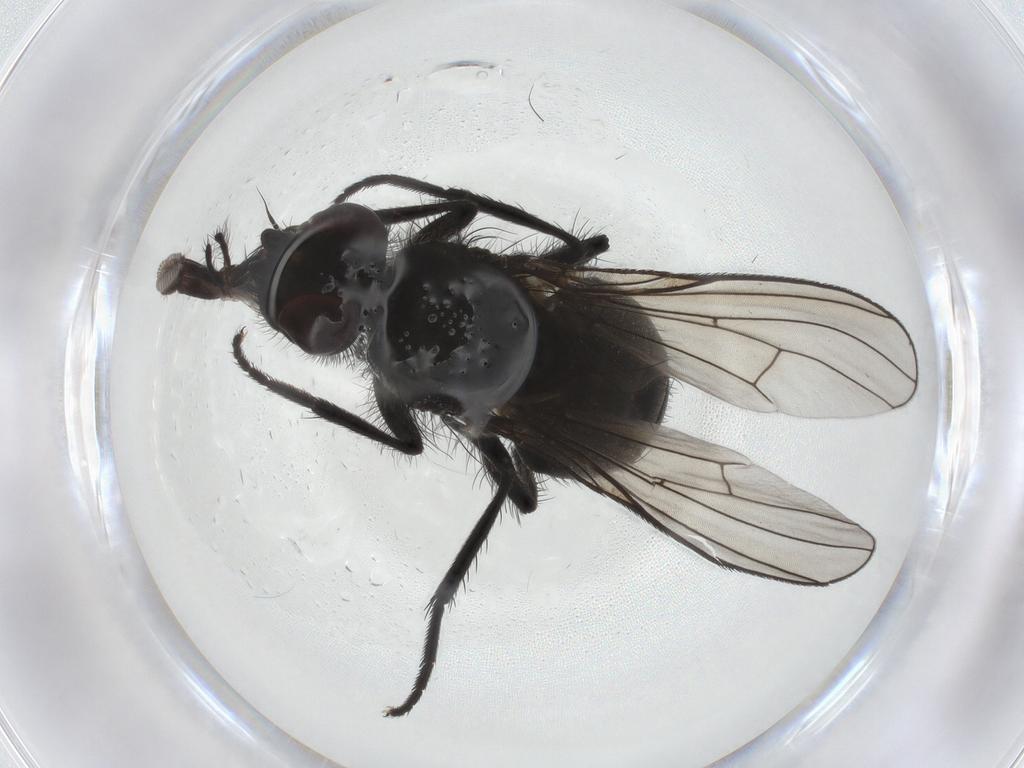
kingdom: Animalia
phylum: Arthropoda
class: Insecta
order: Diptera
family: Muscidae
